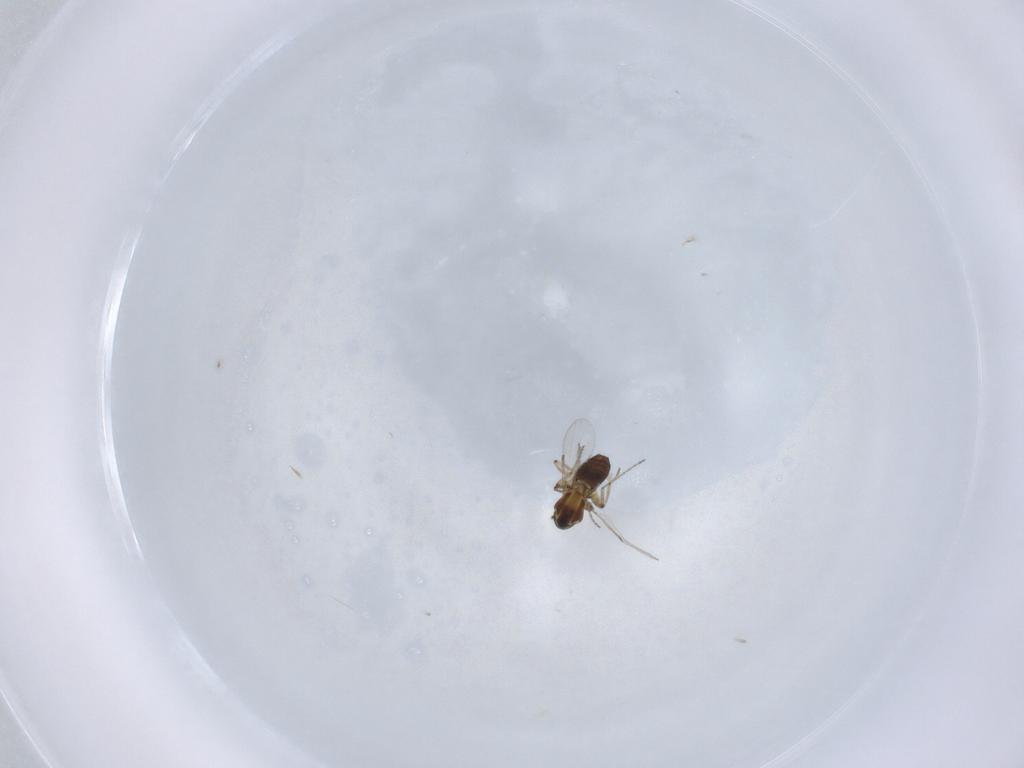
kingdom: Animalia
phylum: Arthropoda
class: Insecta
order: Diptera
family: Ceratopogonidae
